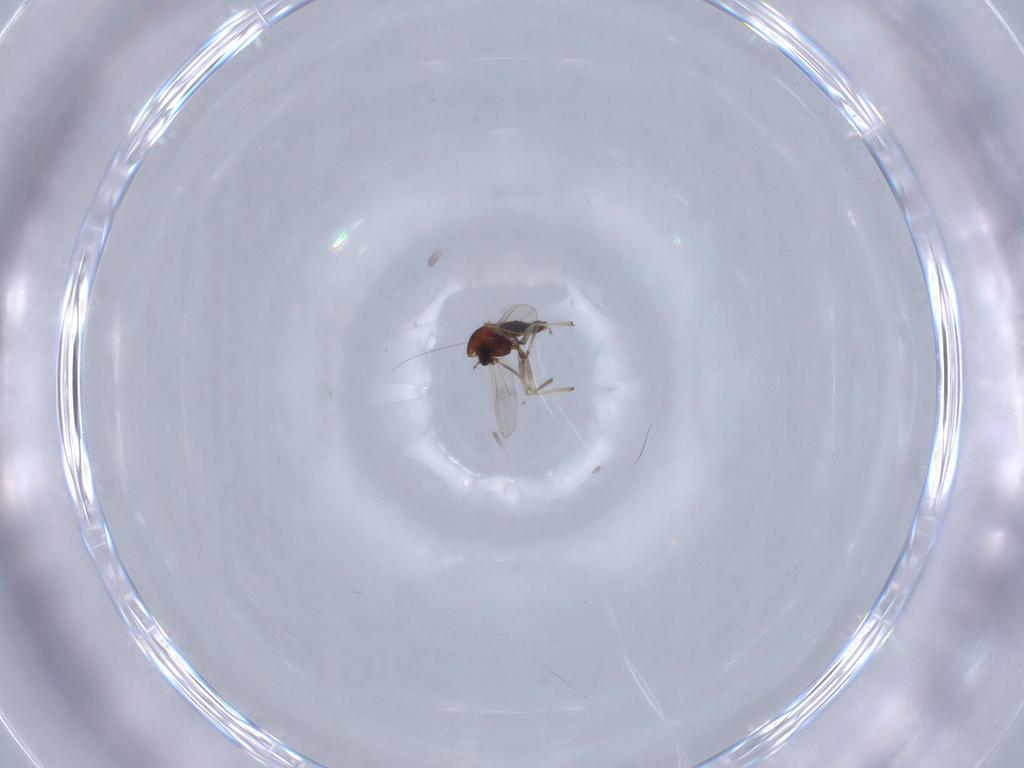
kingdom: Animalia
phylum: Arthropoda
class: Insecta
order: Diptera
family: Chironomidae
